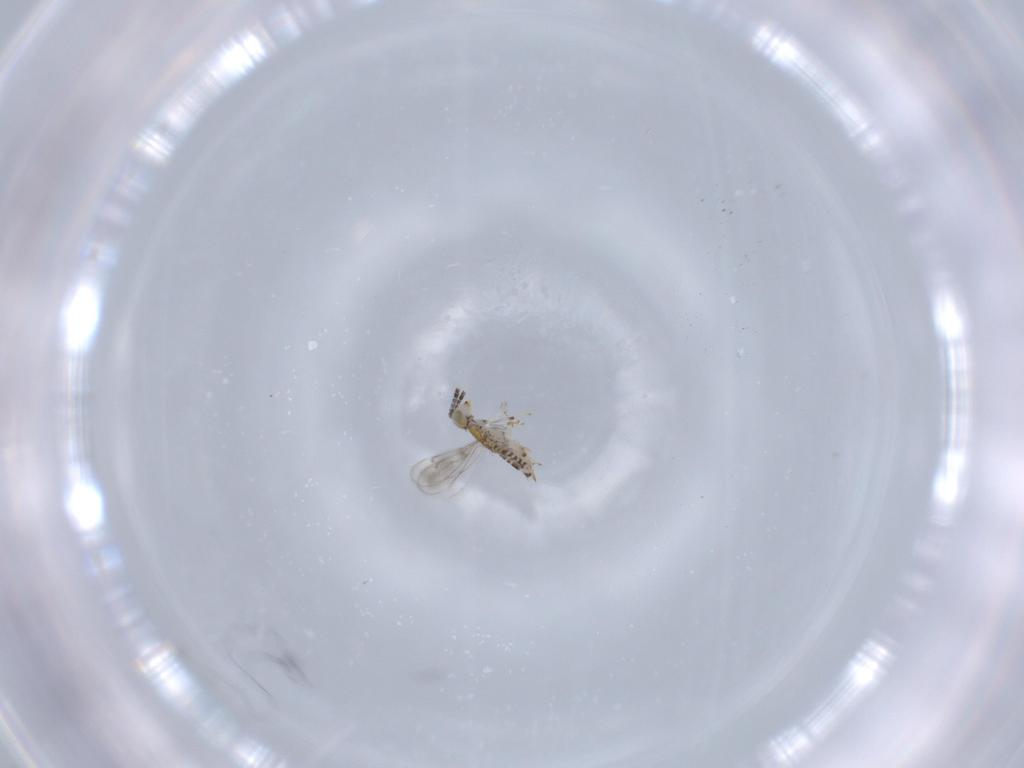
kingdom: Animalia
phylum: Arthropoda
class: Insecta
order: Hymenoptera
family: Aphelinidae
